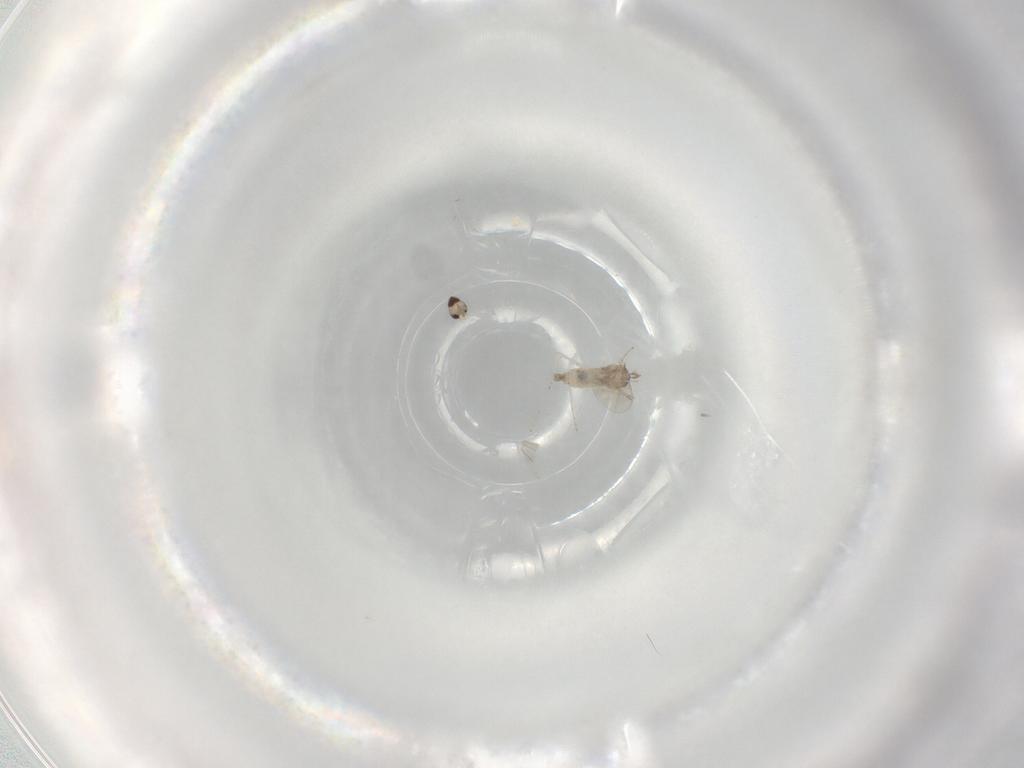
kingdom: Animalia
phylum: Arthropoda
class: Insecta
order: Diptera
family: Cecidomyiidae
